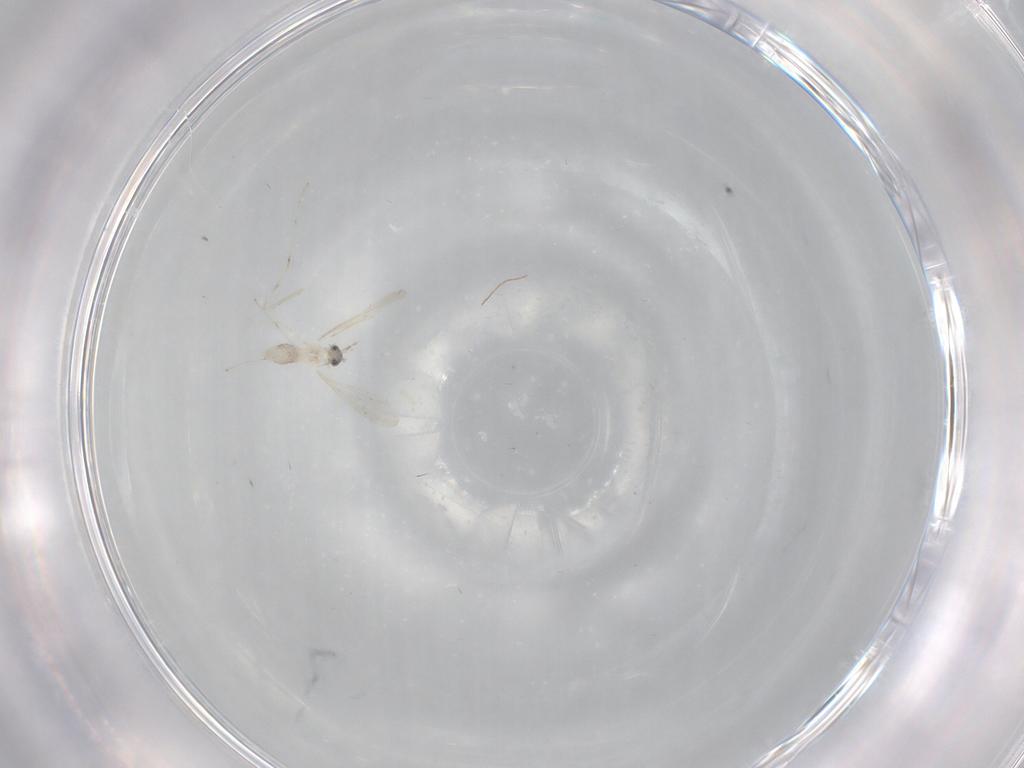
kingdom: Animalia
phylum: Arthropoda
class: Insecta
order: Diptera
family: Cecidomyiidae
